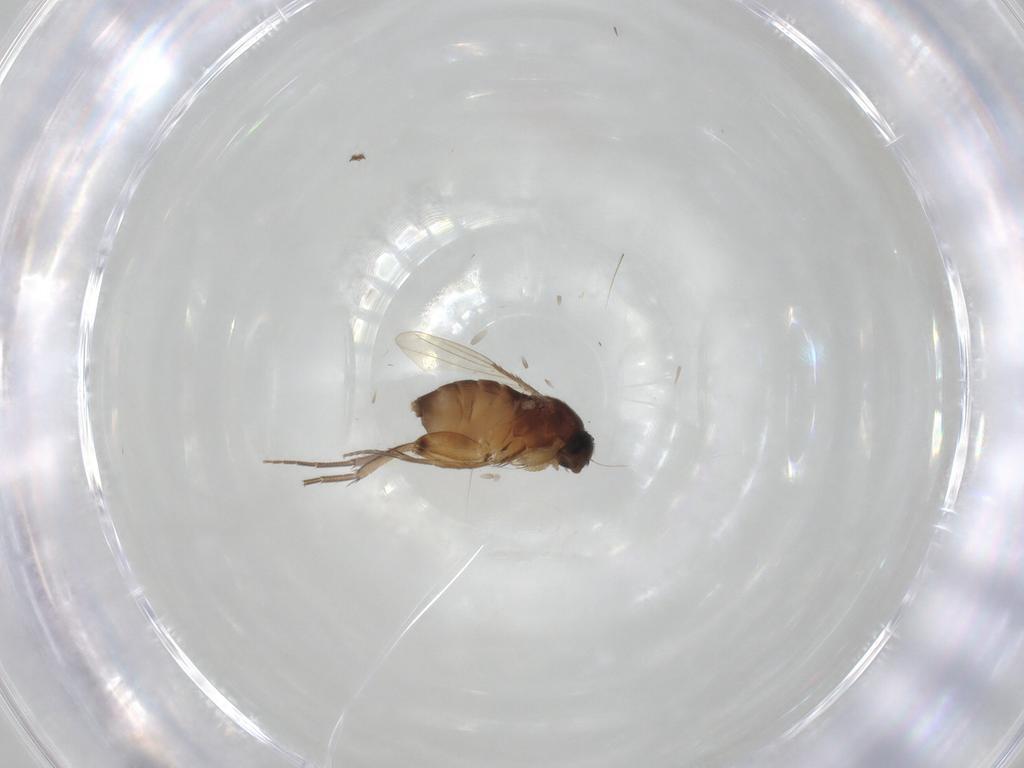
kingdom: Animalia
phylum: Arthropoda
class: Insecta
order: Diptera
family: Phoridae
